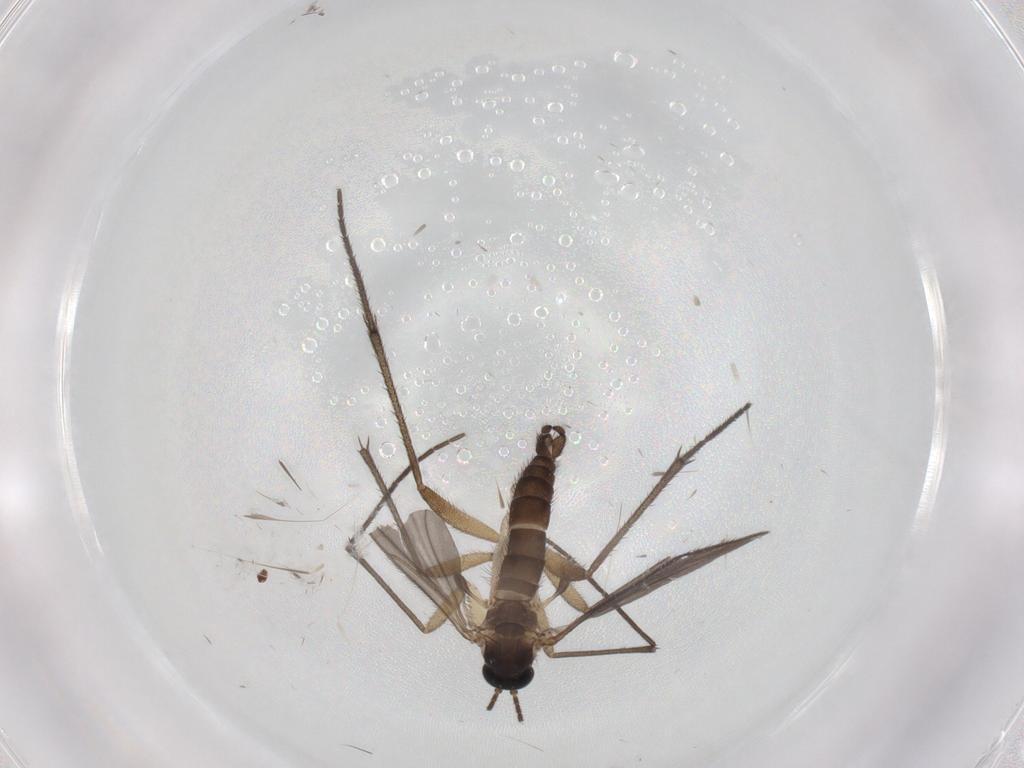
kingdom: Animalia
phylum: Arthropoda
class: Insecta
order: Diptera
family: Sciaridae
